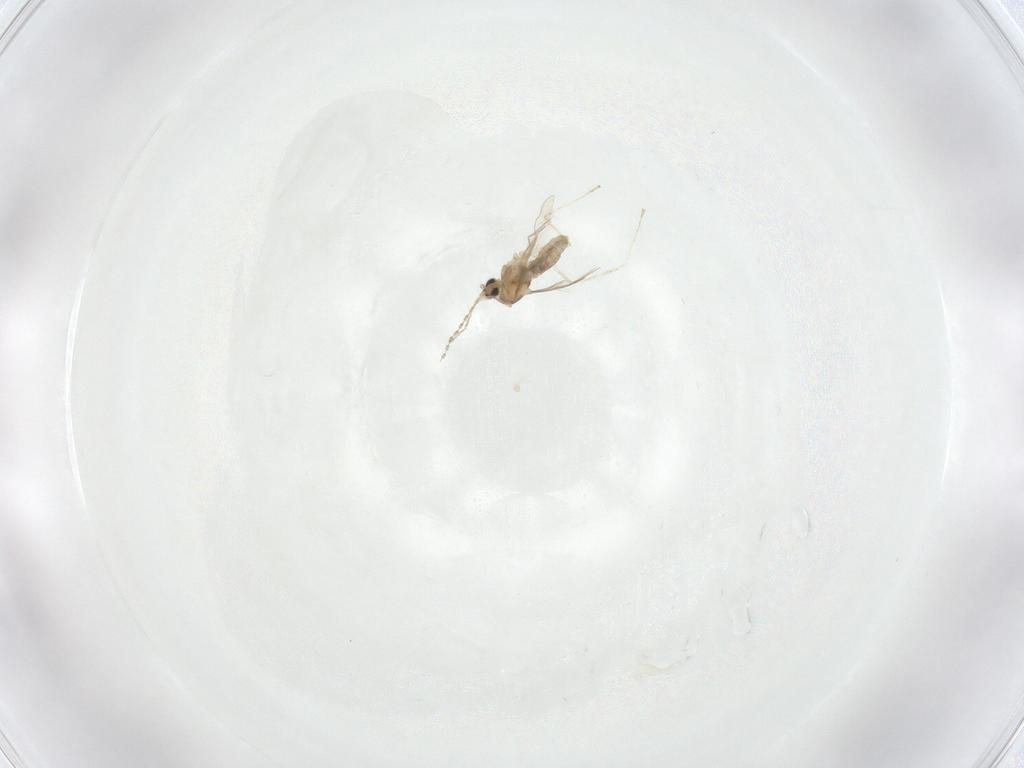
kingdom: Animalia
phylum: Arthropoda
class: Insecta
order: Diptera
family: Cecidomyiidae
